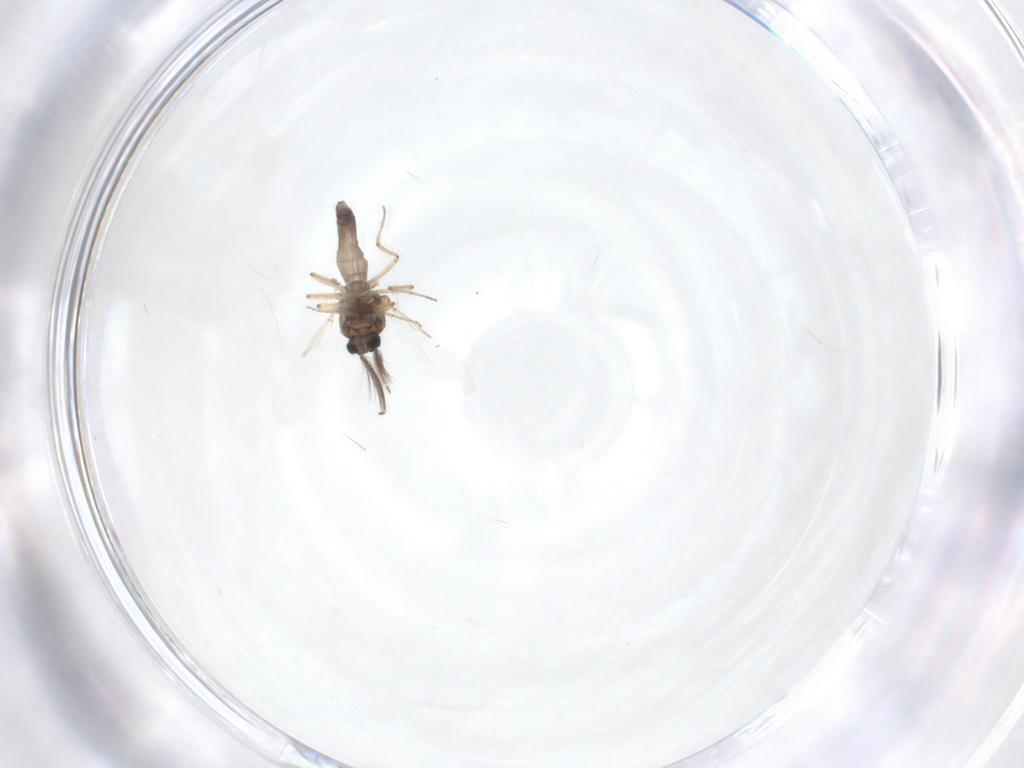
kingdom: Animalia
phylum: Arthropoda
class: Insecta
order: Diptera
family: Ceratopogonidae
